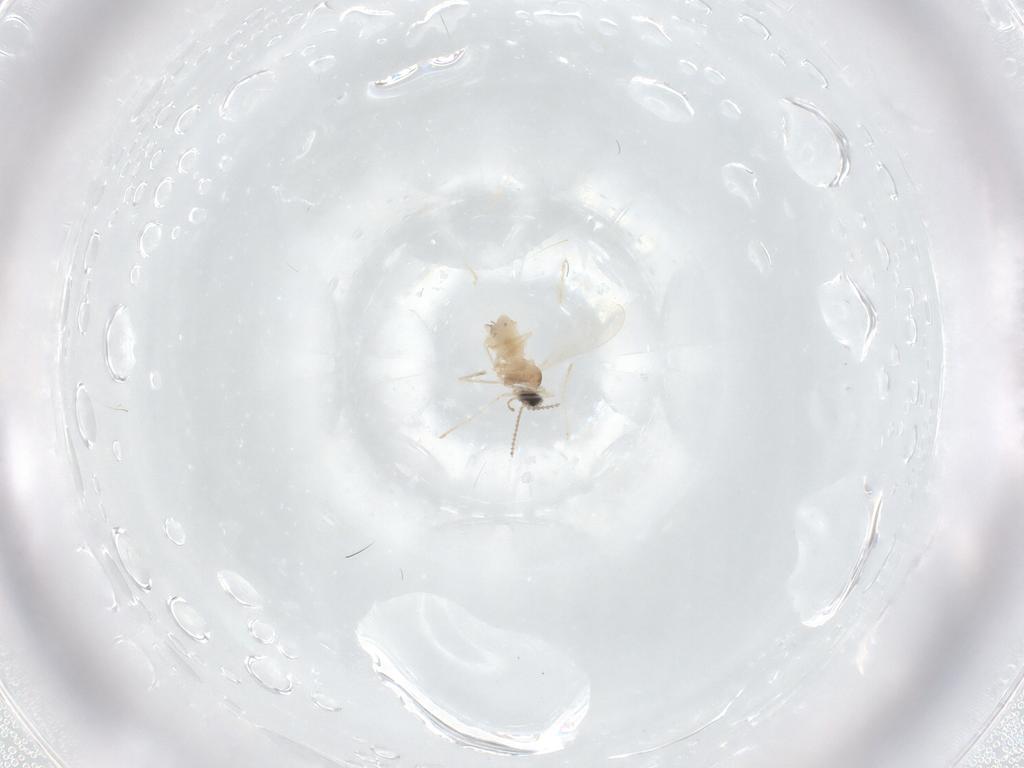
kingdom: Animalia
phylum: Arthropoda
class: Insecta
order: Diptera
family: Cecidomyiidae
